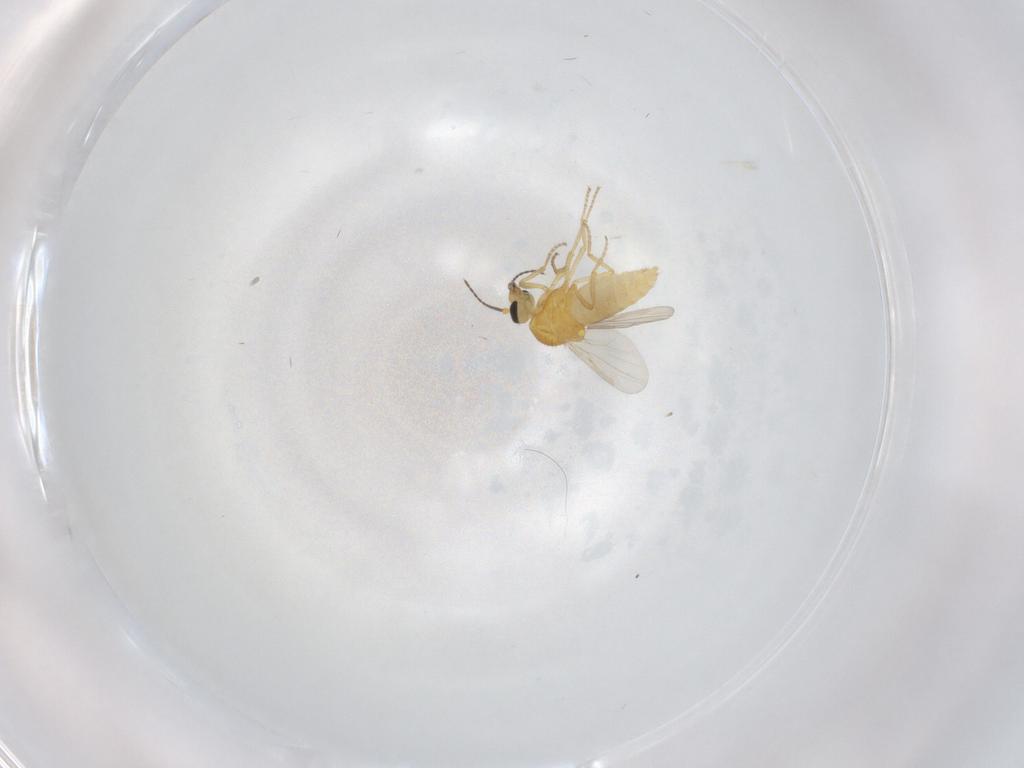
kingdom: Animalia
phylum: Arthropoda
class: Insecta
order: Diptera
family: Ceratopogonidae
